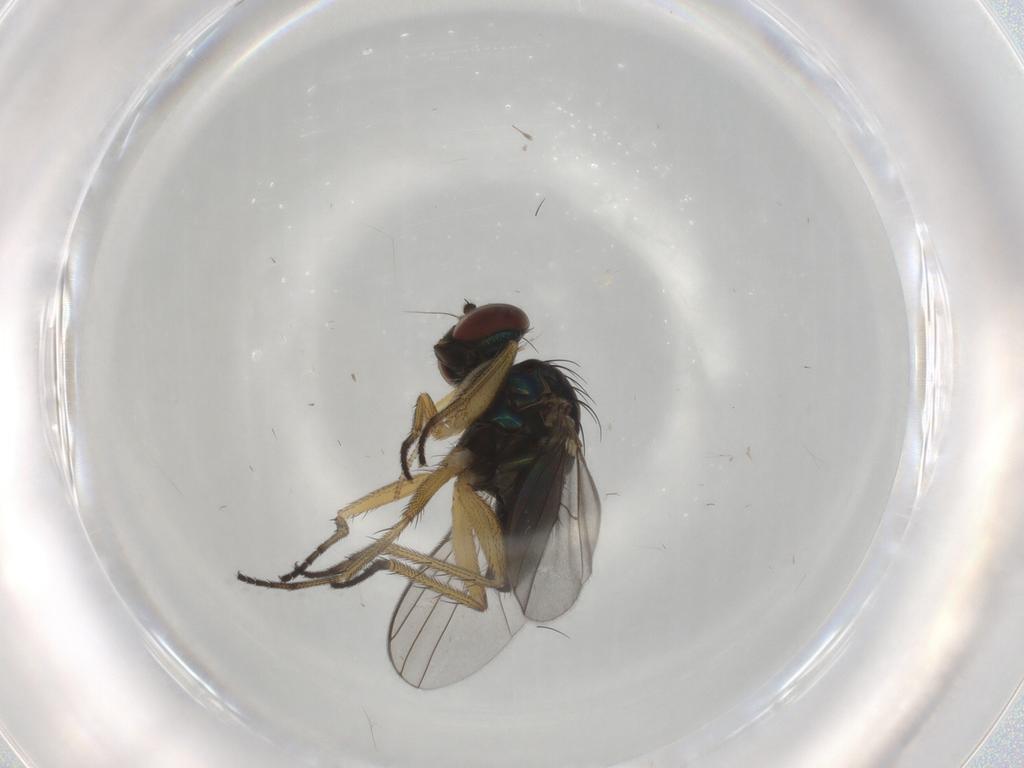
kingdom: Animalia
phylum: Arthropoda
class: Insecta
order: Diptera
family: Dolichopodidae
